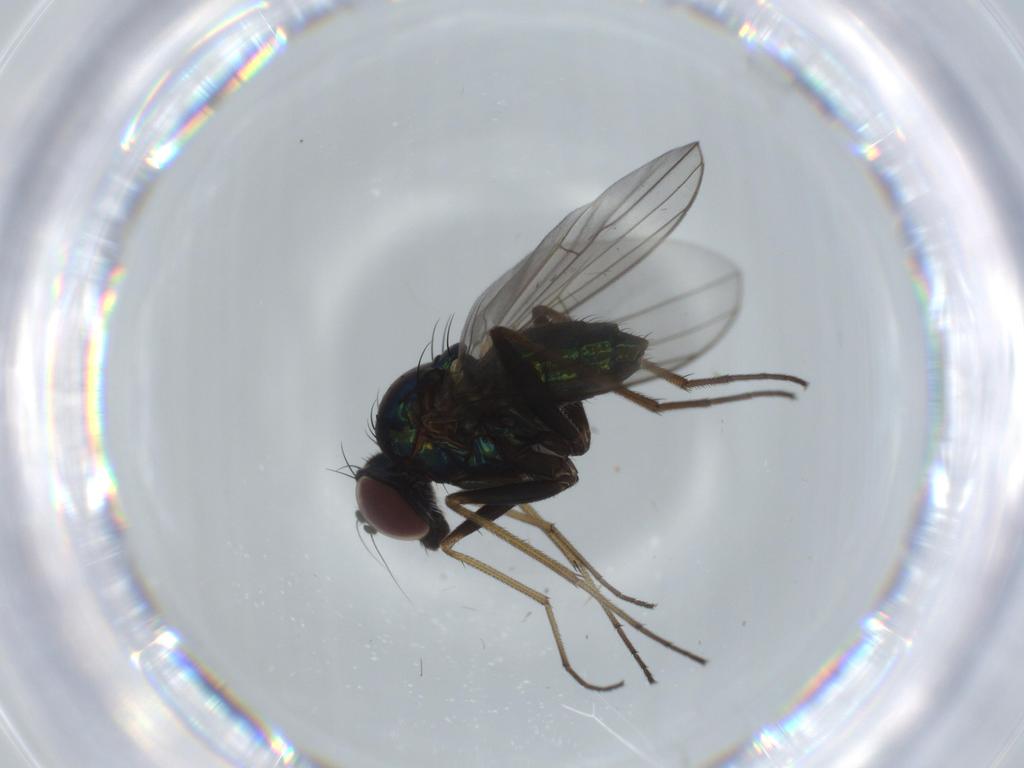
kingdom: Animalia
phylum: Arthropoda
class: Insecta
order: Diptera
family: Dolichopodidae
